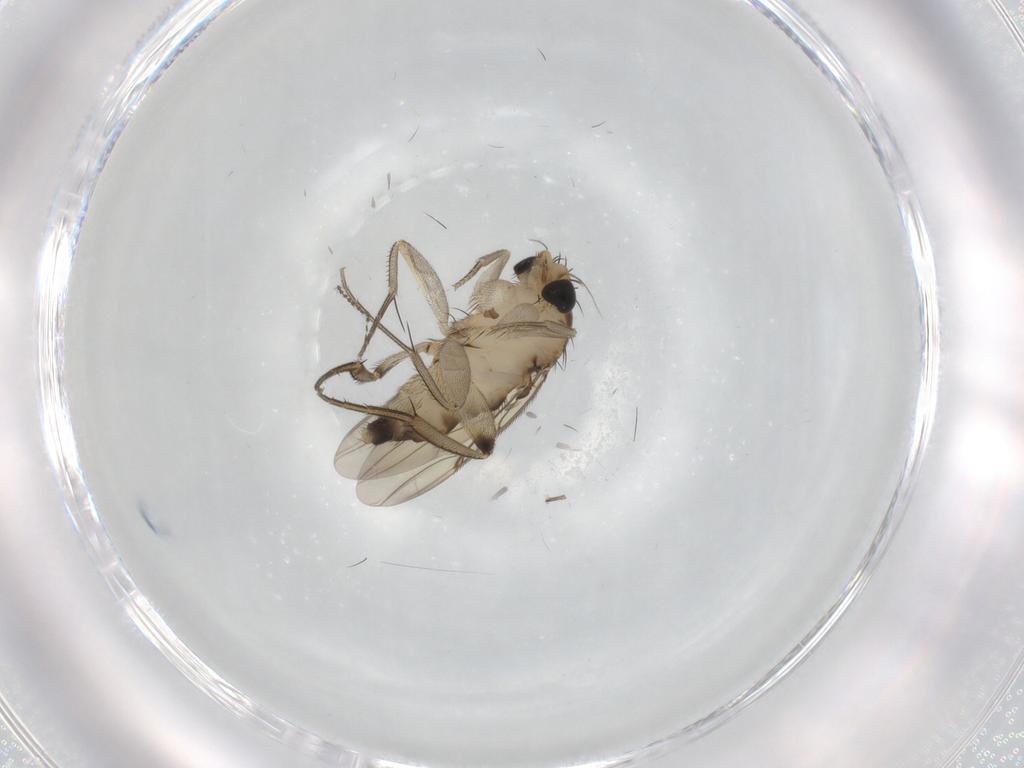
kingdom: Animalia
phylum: Arthropoda
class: Insecta
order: Diptera
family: Phoridae
